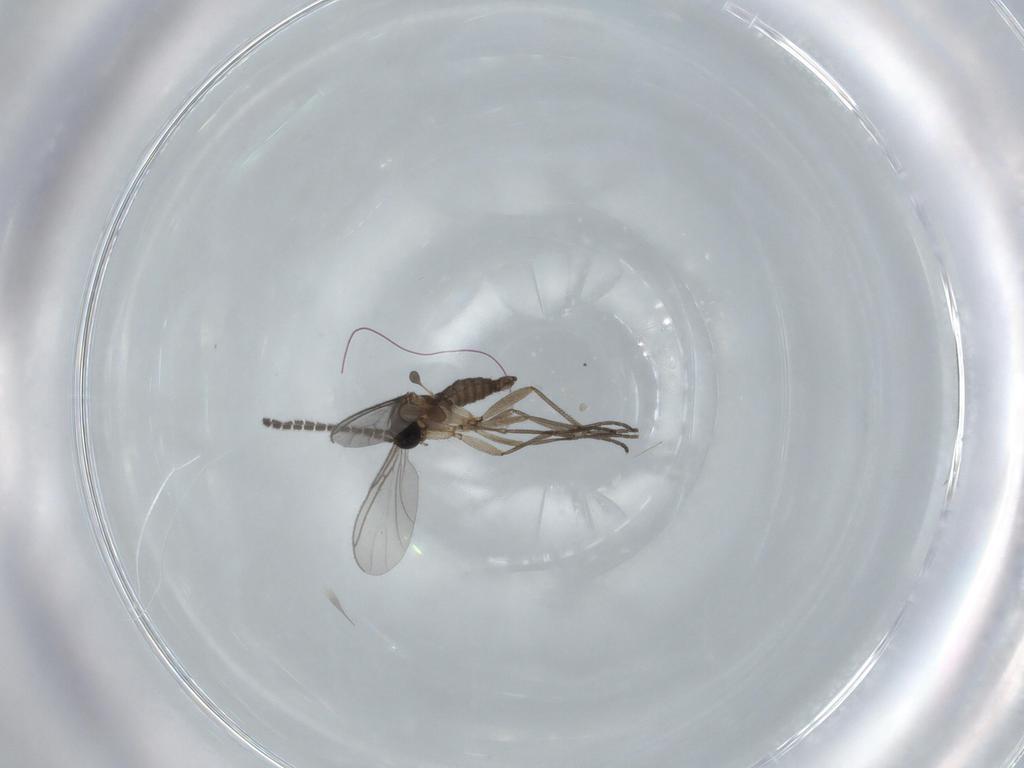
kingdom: Animalia
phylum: Arthropoda
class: Insecta
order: Diptera
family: Sciaridae
